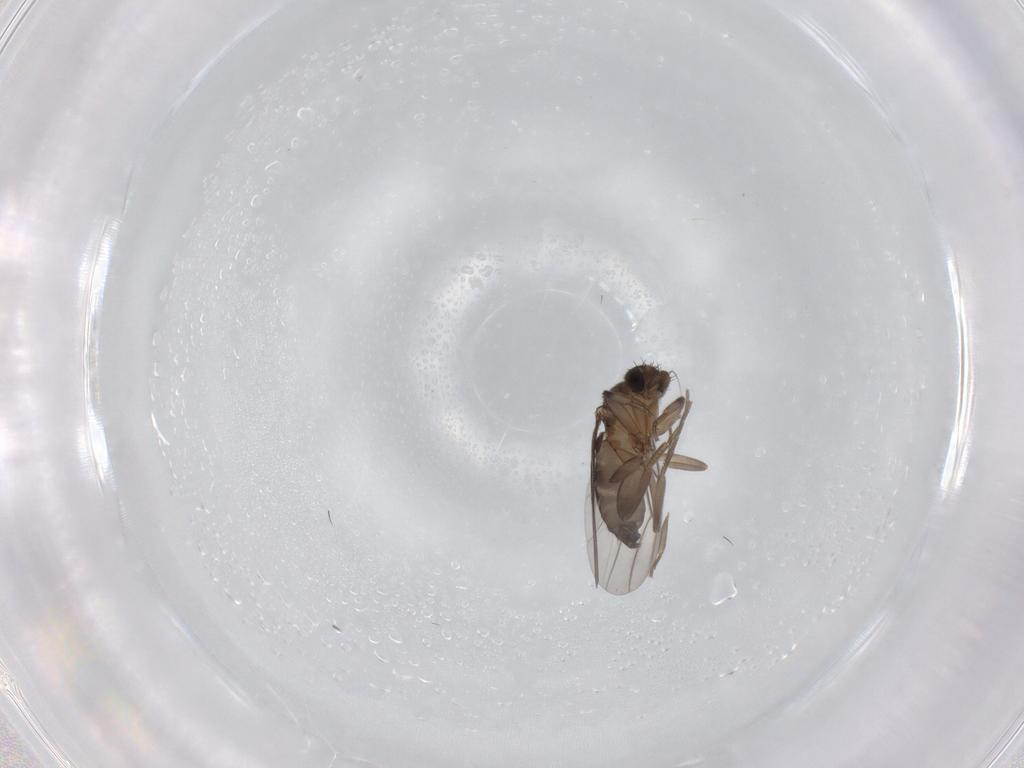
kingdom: Animalia
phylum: Arthropoda
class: Insecta
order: Diptera
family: Phoridae
